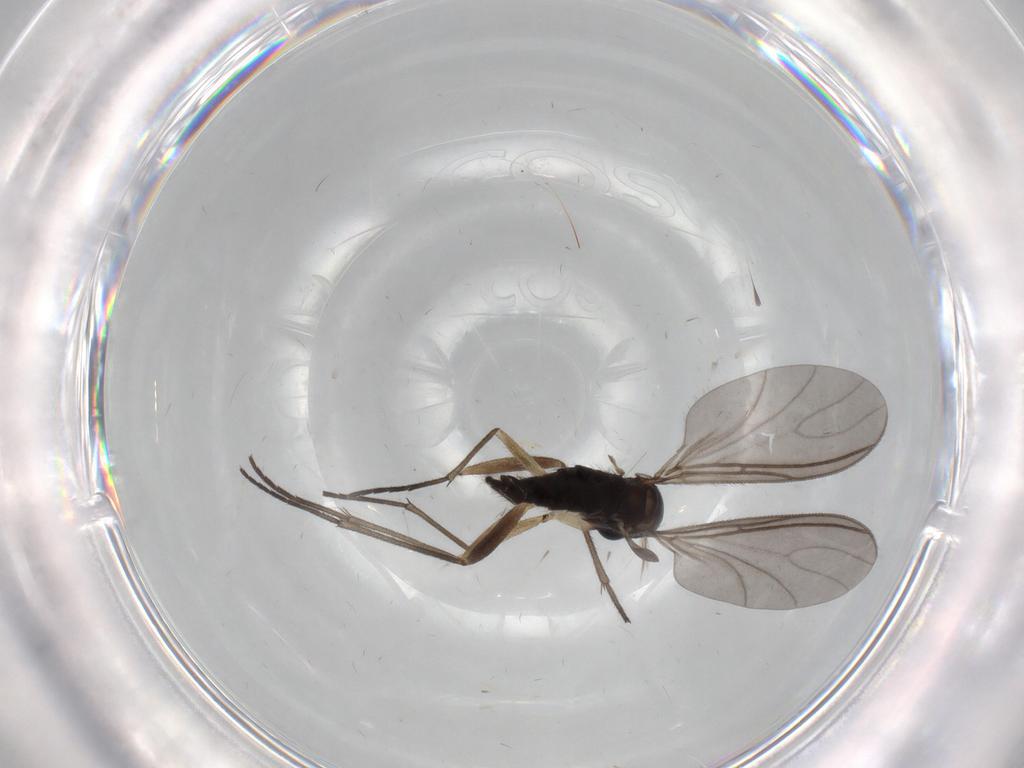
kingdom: Animalia
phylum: Arthropoda
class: Insecta
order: Diptera
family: Sciaridae
